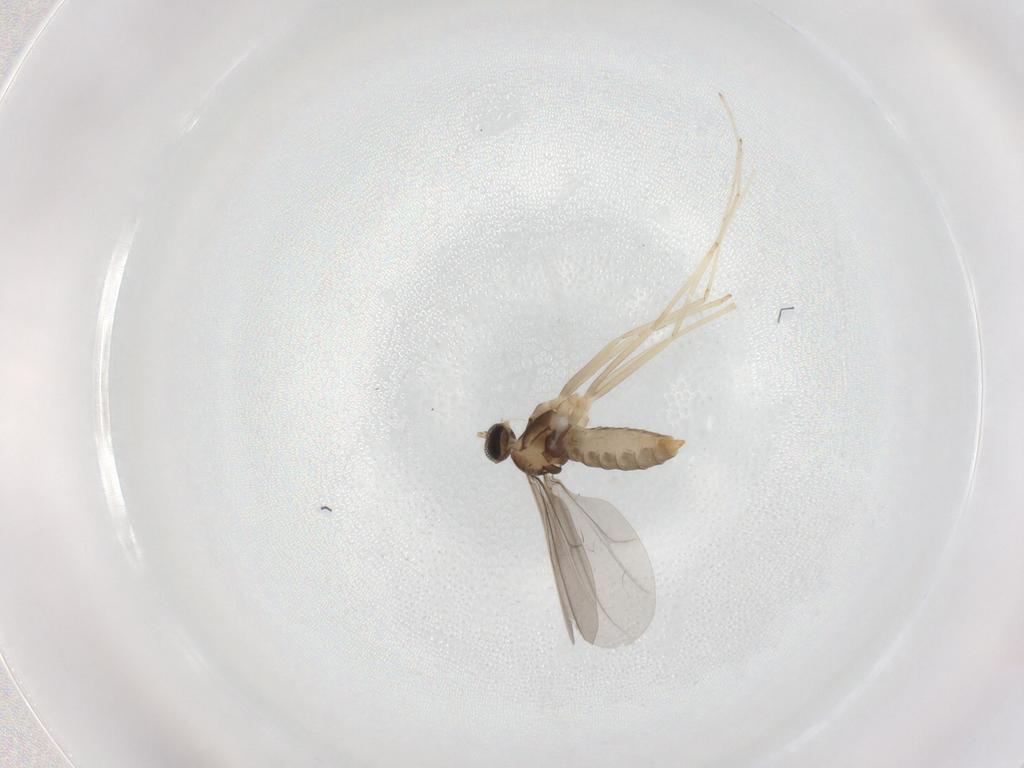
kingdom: Animalia
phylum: Arthropoda
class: Insecta
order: Diptera
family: Cecidomyiidae
